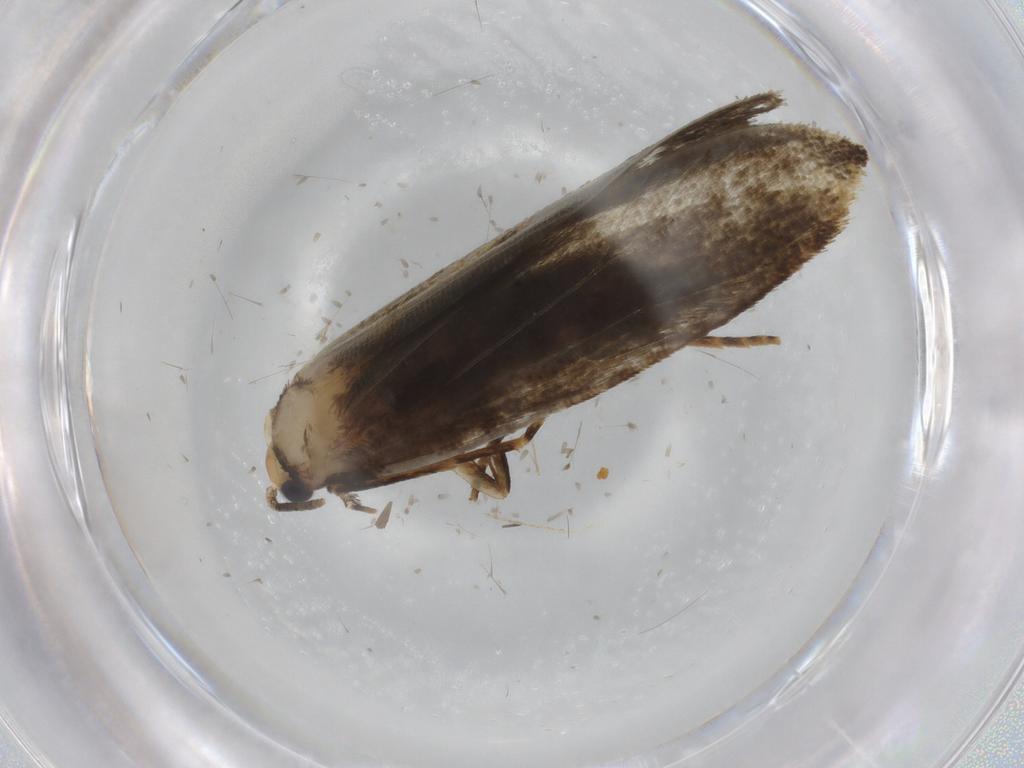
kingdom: Animalia
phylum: Arthropoda
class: Insecta
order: Lepidoptera
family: Tineidae
